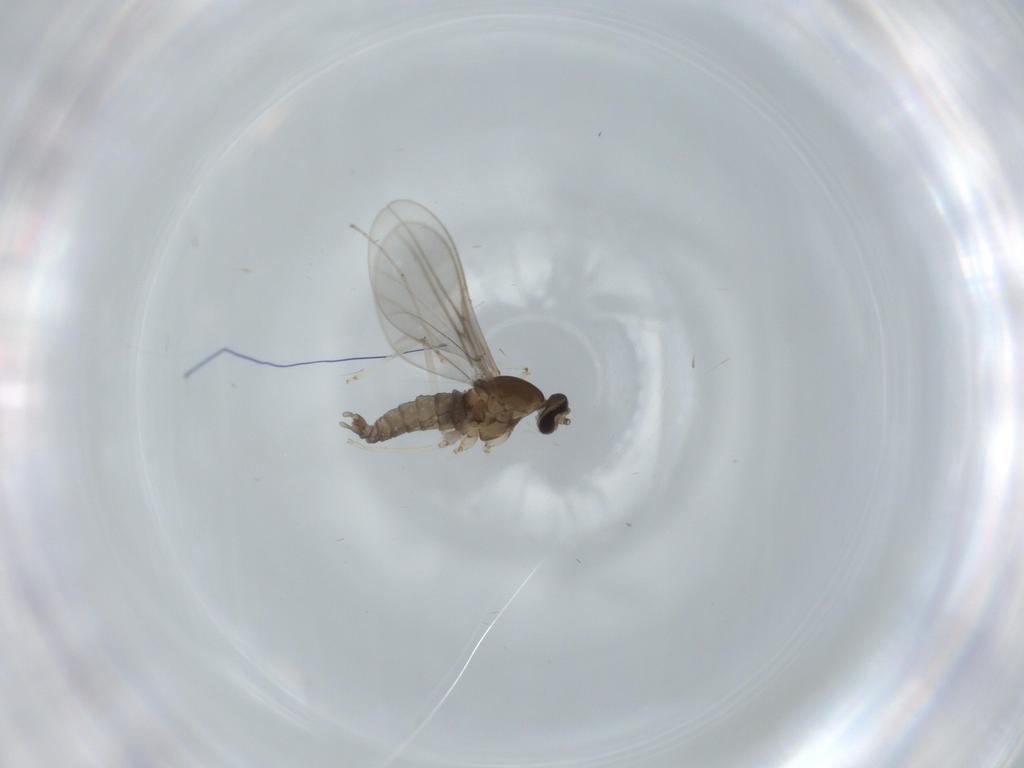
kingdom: Animalia
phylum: Arthropoda
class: Insecta
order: Diptera
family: Cecidomyiidae
